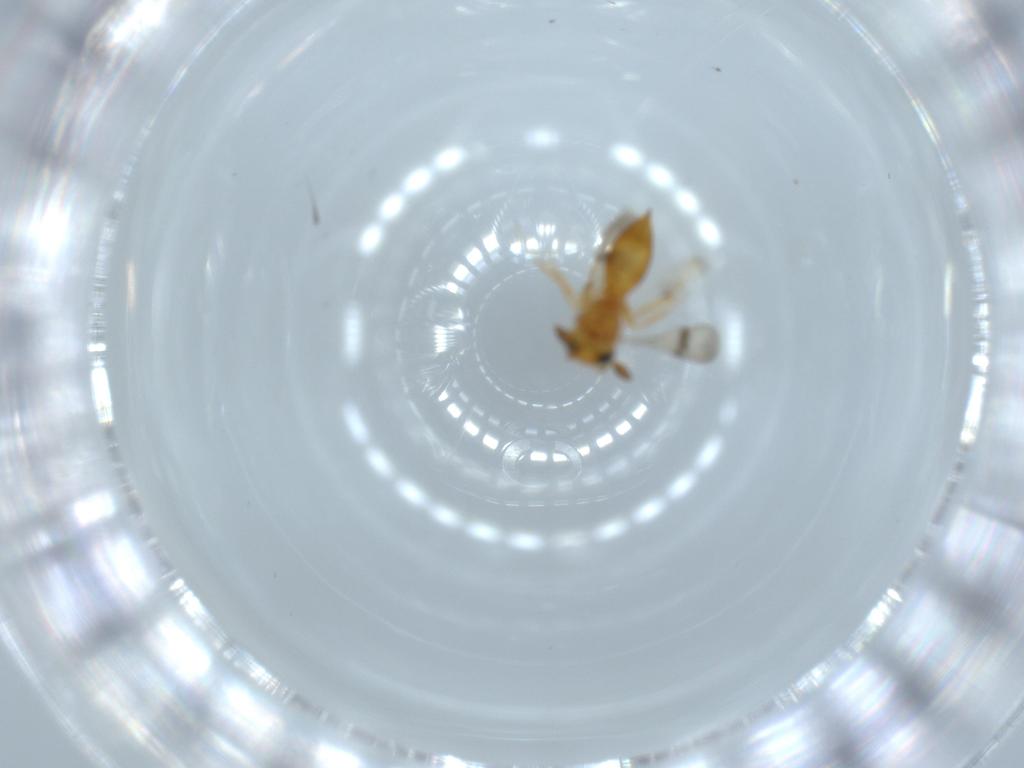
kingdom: Animalia
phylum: Arthropoda
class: Insecta
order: Hymenoptera
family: Scelionidae
